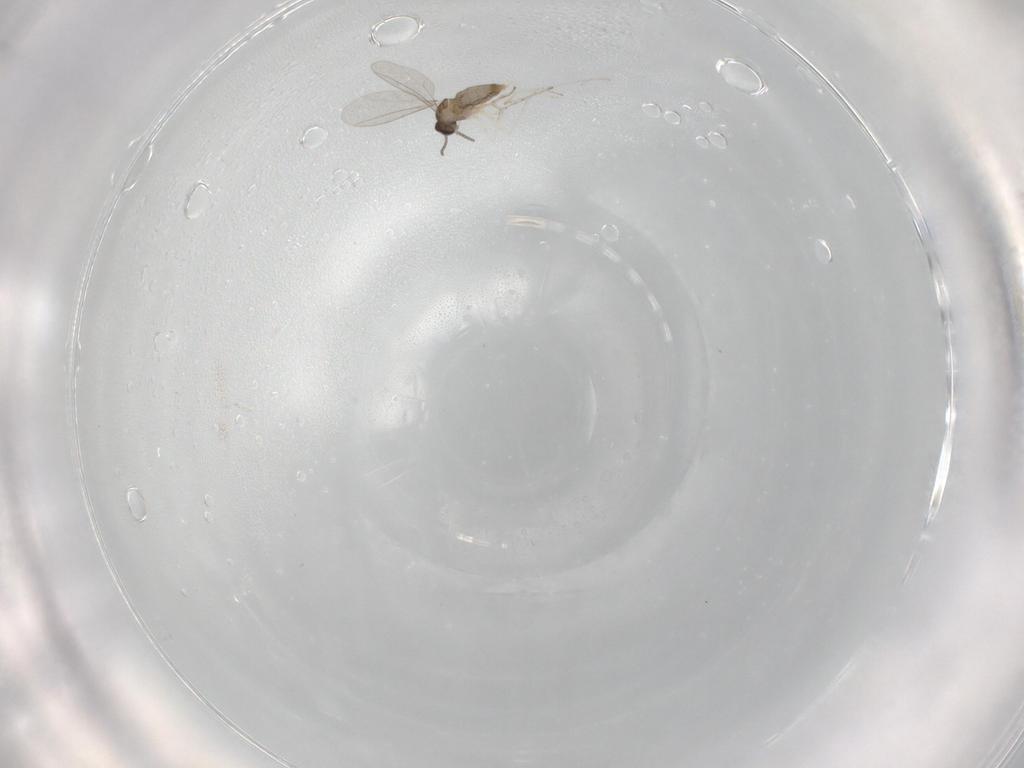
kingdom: Animalia
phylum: Arthropoda
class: Insecta
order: Diptera
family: Cecidomyiidae
